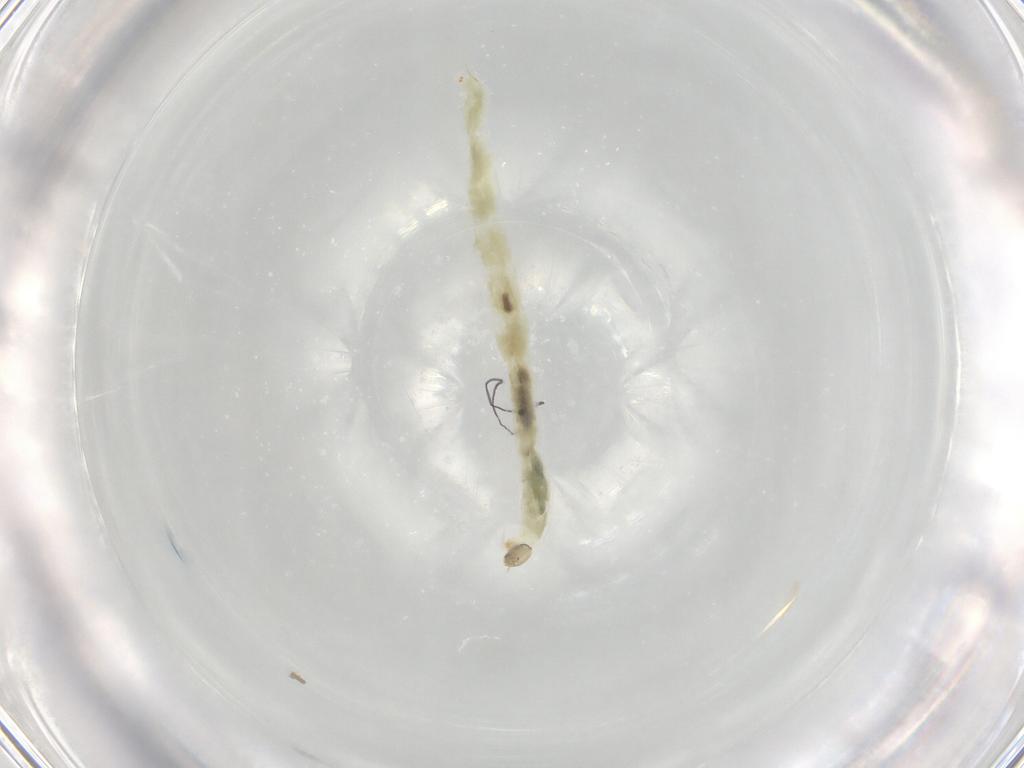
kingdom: Animalia
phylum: Arthropoda
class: Insecta
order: Diptera
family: Chironomidae
